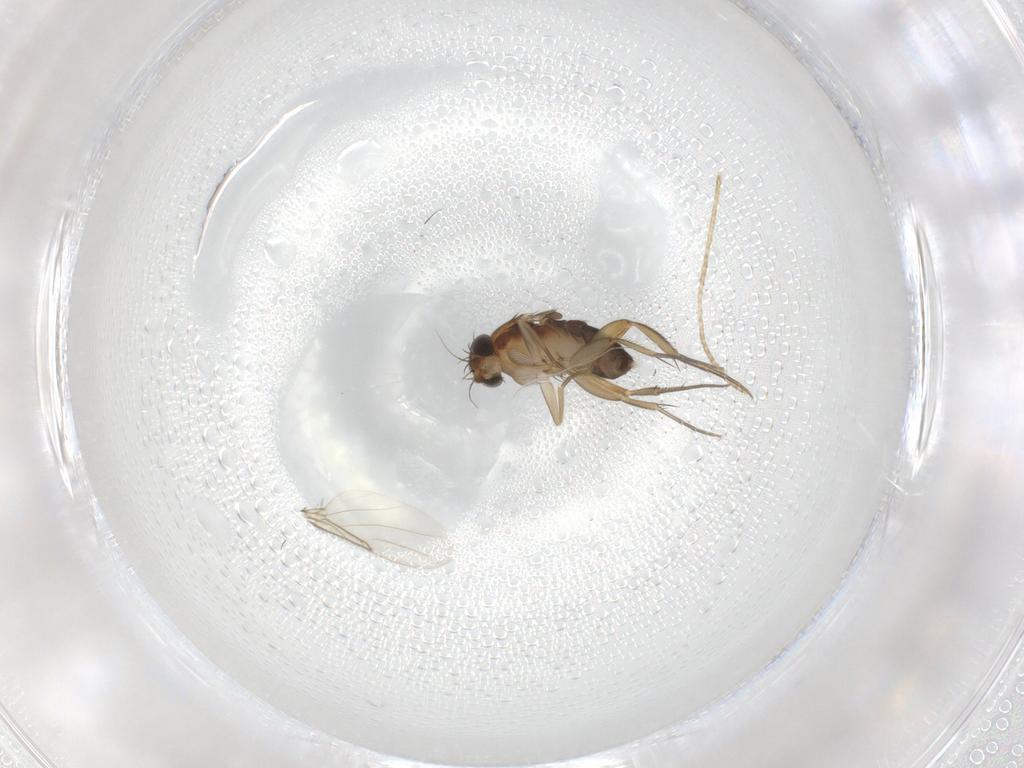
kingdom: Animalia
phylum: Arthropoda
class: Insecta
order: Diptera
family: Phoridae
